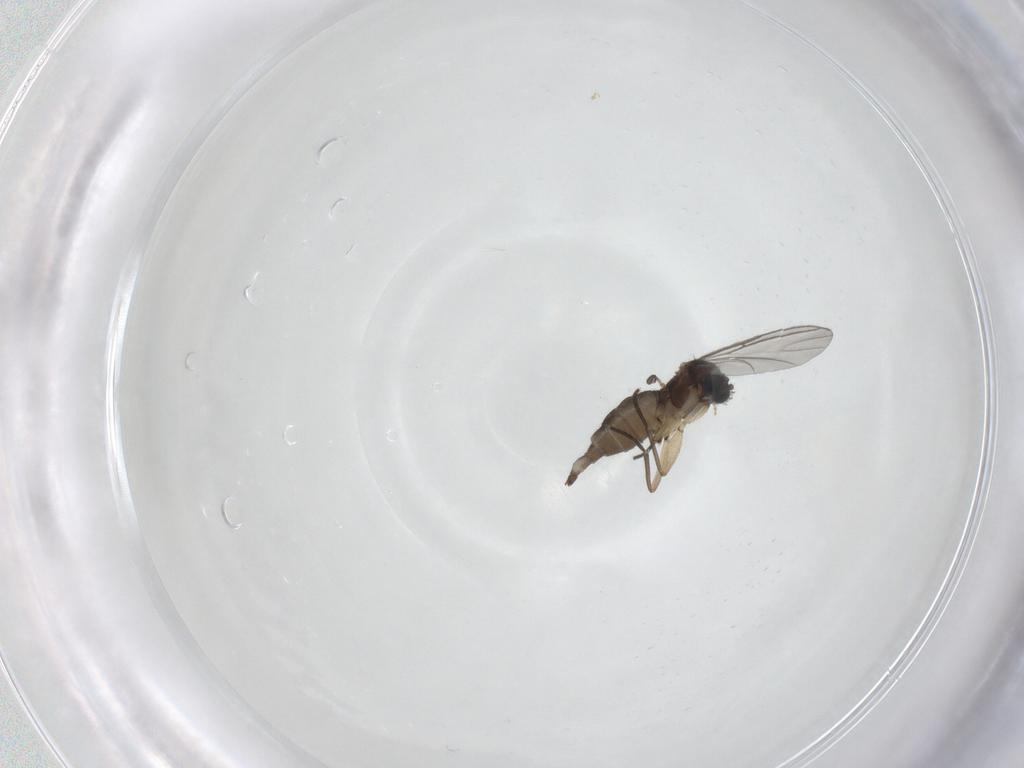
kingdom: Animalia
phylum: Arthropoda
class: Insecta
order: Diptera
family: Sciaridae
